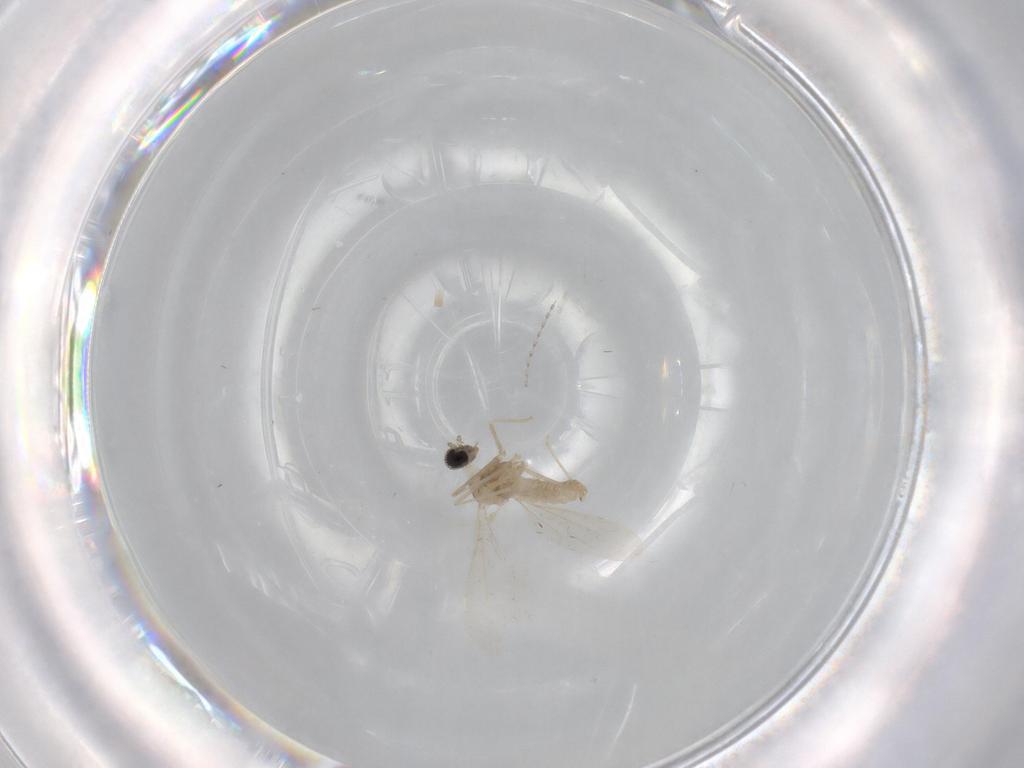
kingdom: Animalia
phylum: Arthropoda
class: Insecta
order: Diptera
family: Cecidomyiidae
